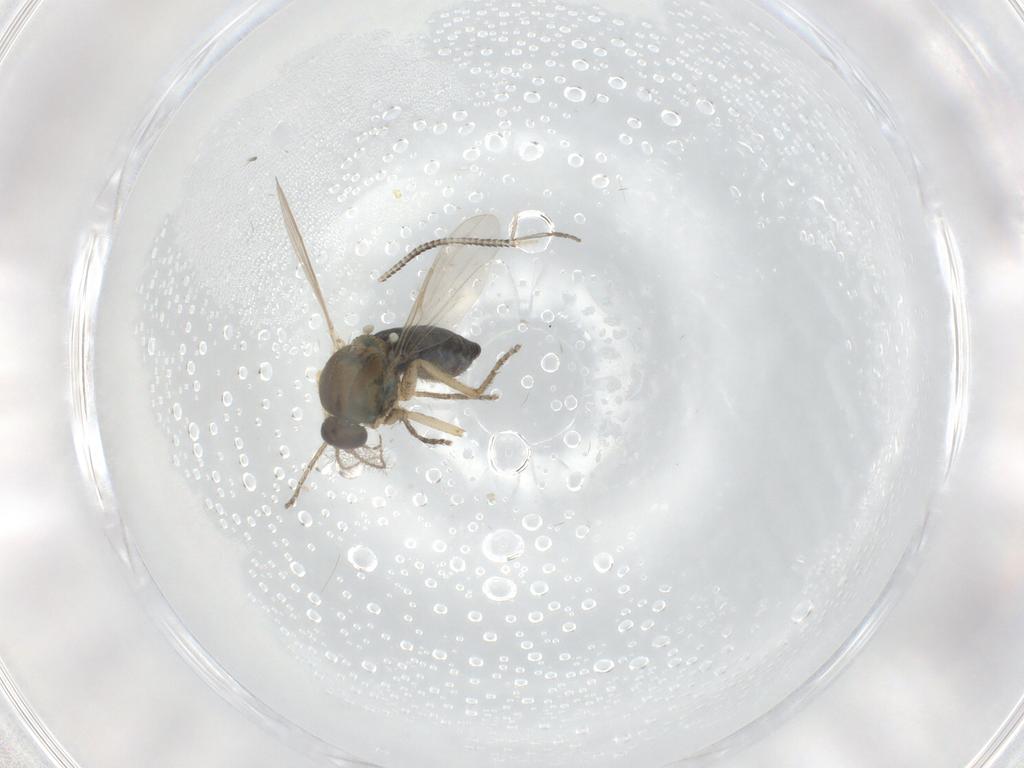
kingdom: Animalia
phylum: Arthropoda
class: Insecta
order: Diptera
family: Ceratopogonidae
